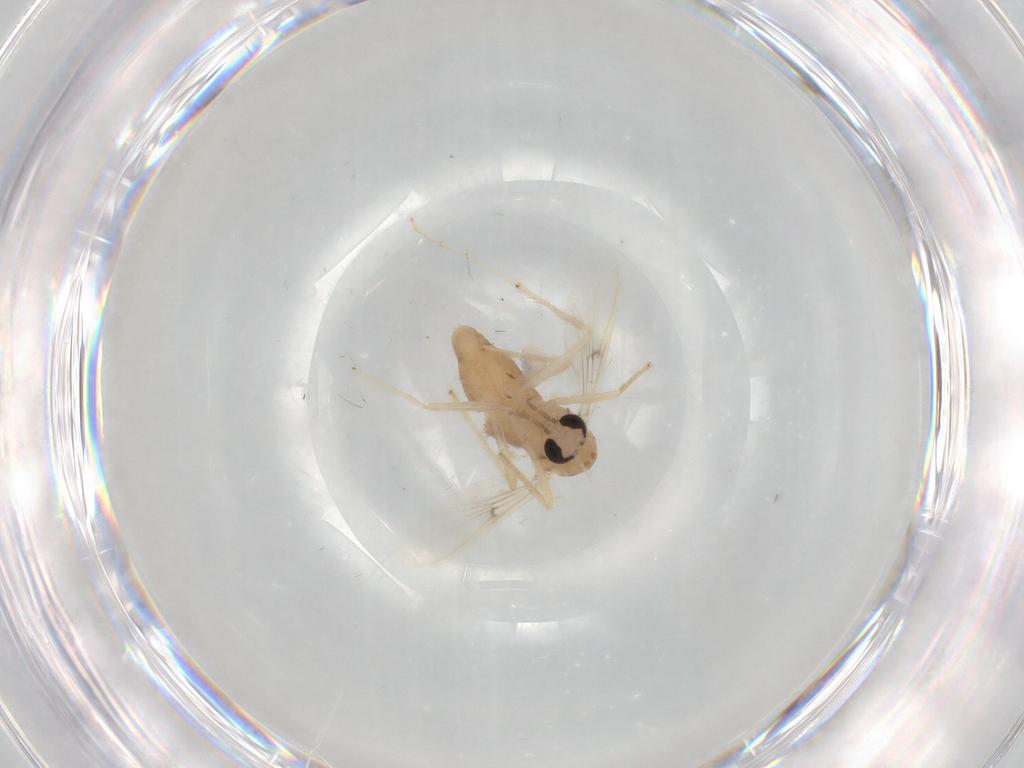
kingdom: Animalia
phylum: Arthropoda
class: Insecta
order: Diptera
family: Chironomidae
